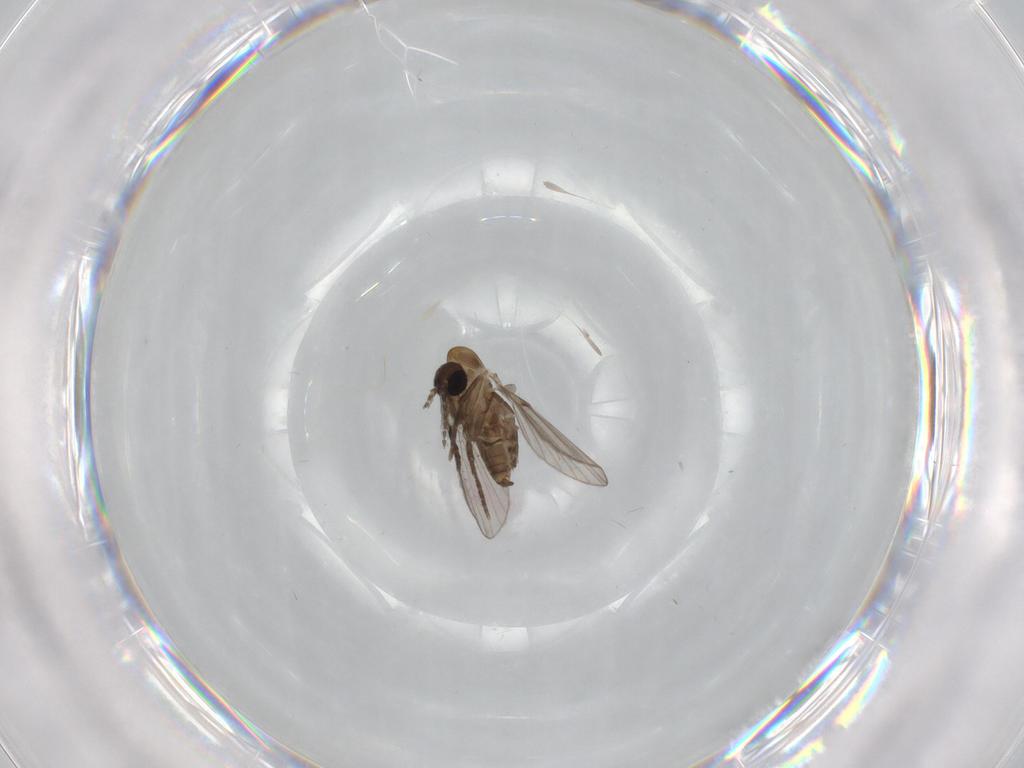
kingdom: Animalia
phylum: Arthropoda
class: Insecta
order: Diptera
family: Psychodidae
